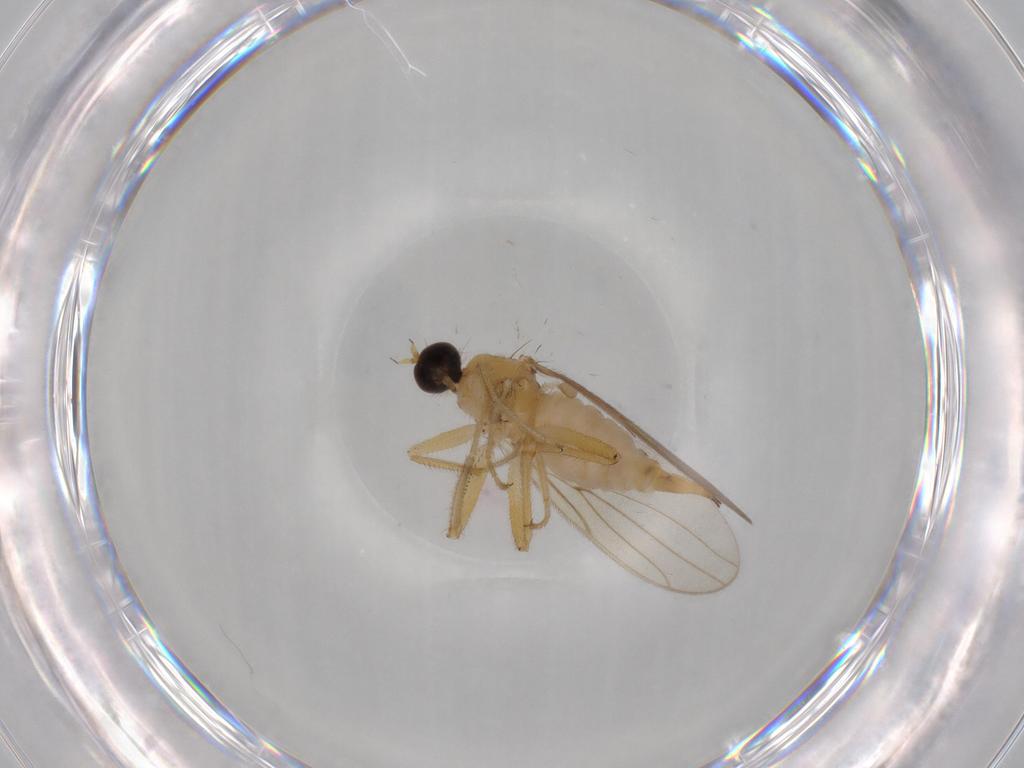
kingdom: Animalia
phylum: Arthropoda
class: Insecta
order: Diptera
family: Hybotidae
